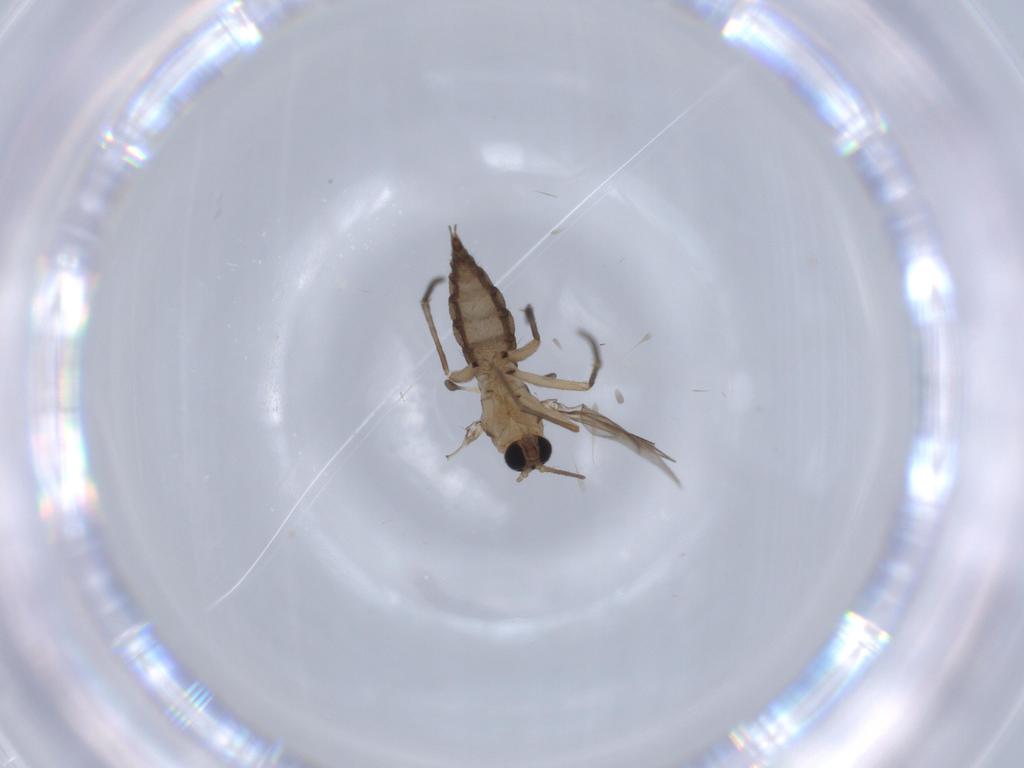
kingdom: Animalia
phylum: Arthropoda
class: Insecta
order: Diptera
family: Sciaridae
